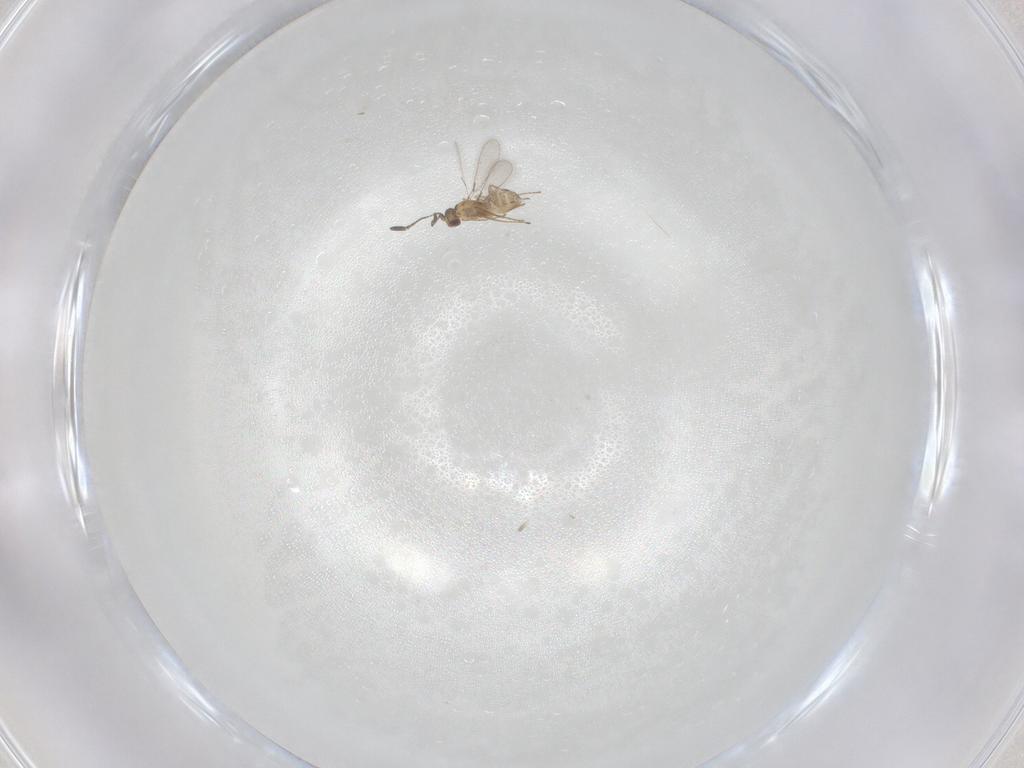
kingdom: Animalia
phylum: Arthropoda
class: Insecta
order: Hymenoptera
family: Mymaridae
